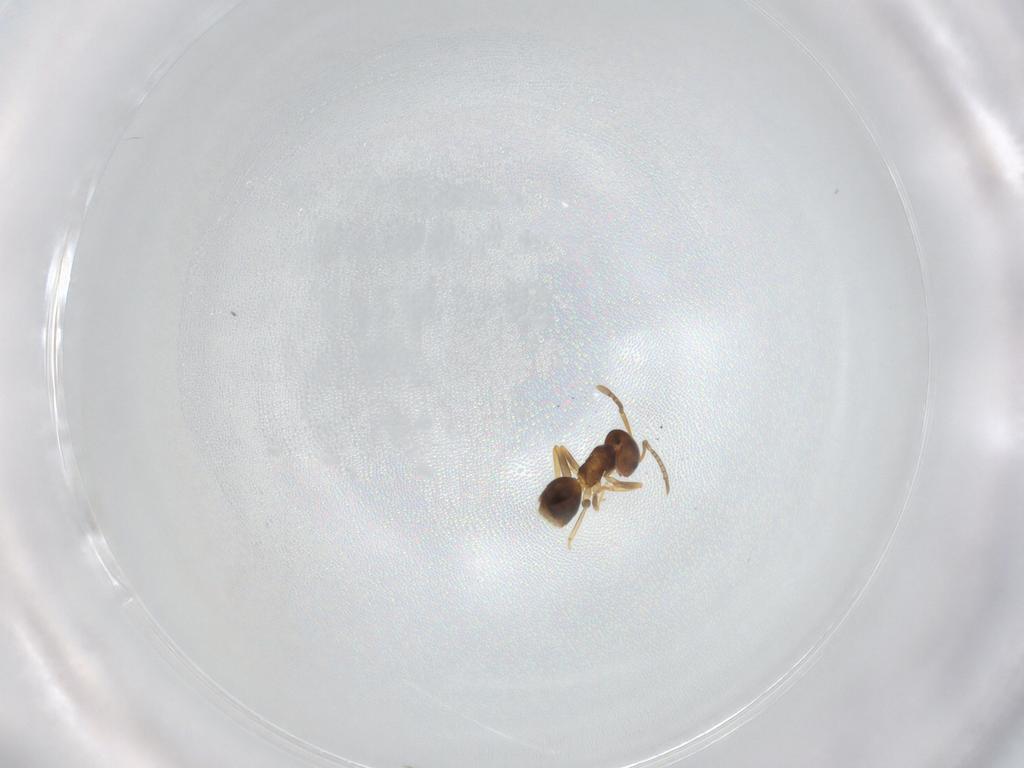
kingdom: Animalia
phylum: Arthropoda
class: Insecta
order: Hymenoptera
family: Formicidae
